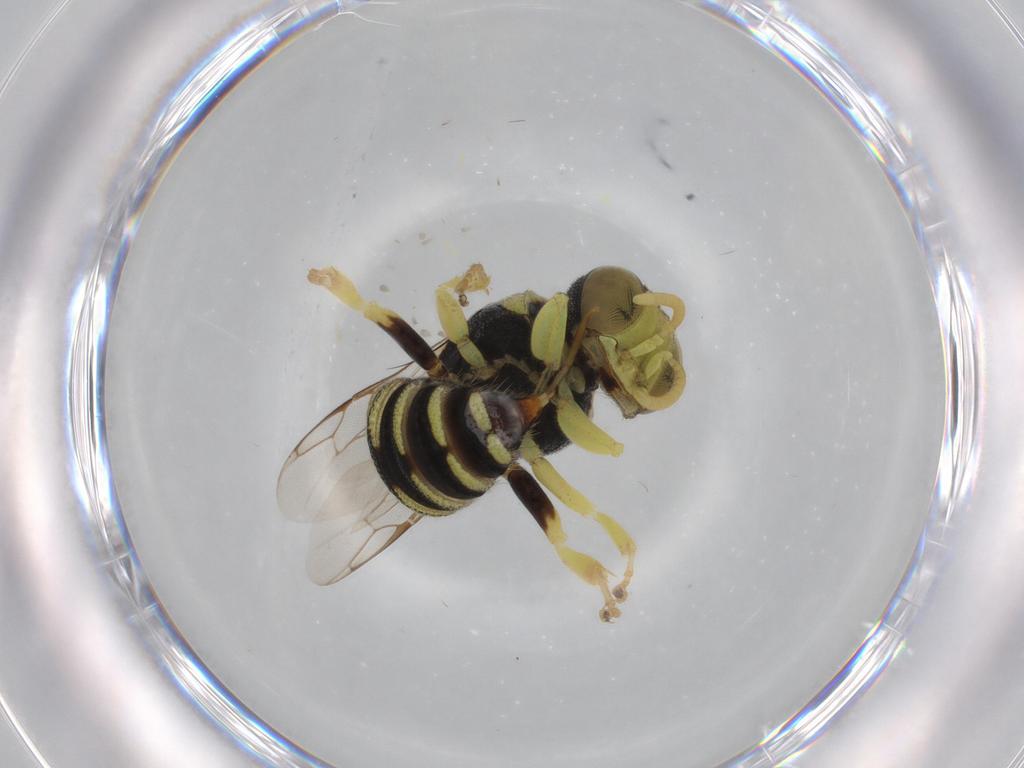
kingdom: Animalia
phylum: Arthropoda
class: Insecta
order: Hymenoptera
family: Crabronidae
